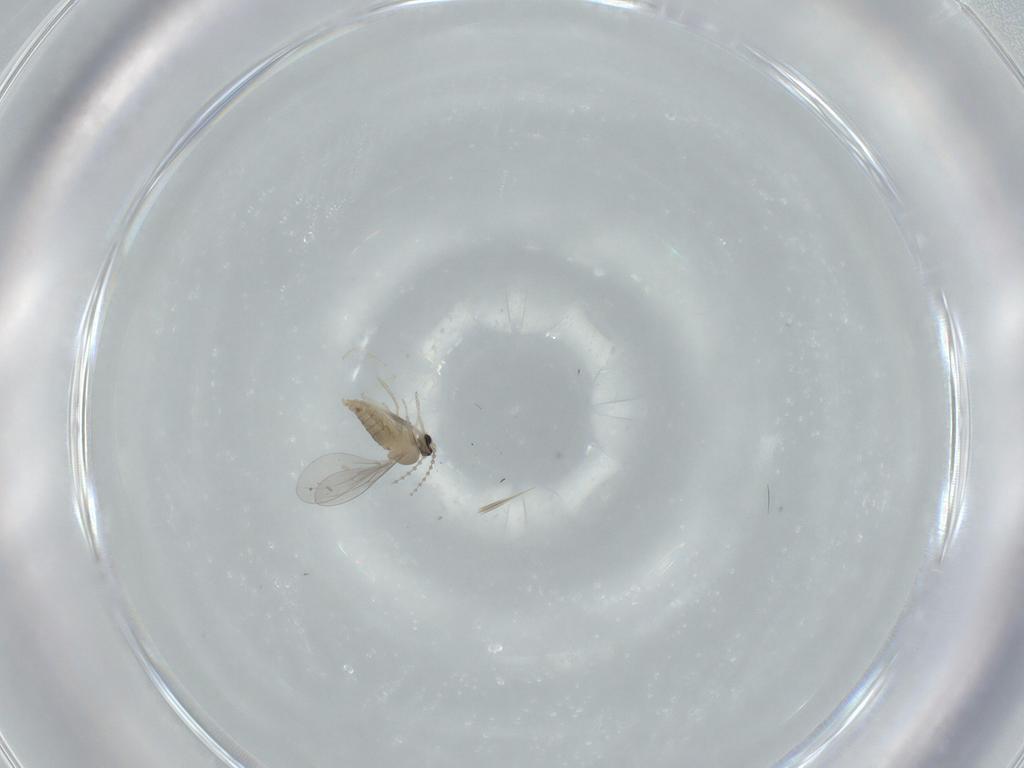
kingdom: Animalia
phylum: Arthropoda
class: Insecta
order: Diptera
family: Cecidomyiidae
